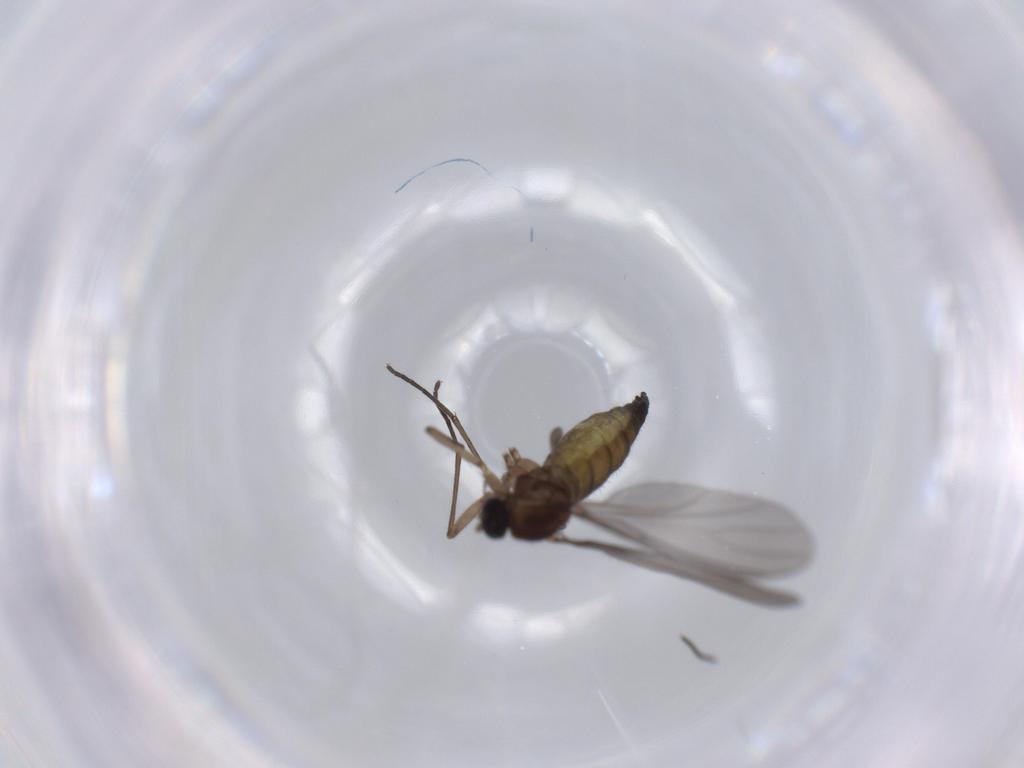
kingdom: Animalia
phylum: Arthropoda
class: Insecta
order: Diptera
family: Sciaridae
